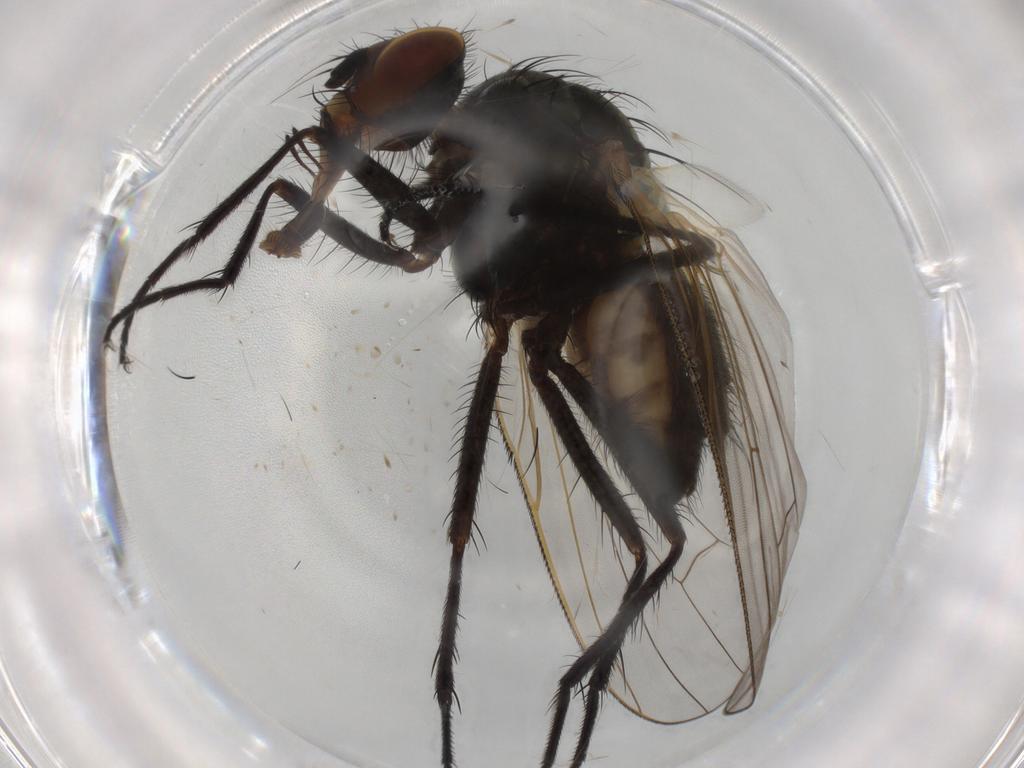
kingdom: Animalia
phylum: Arthropoda
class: Insecta
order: Diptera
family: Anthomyiidae
